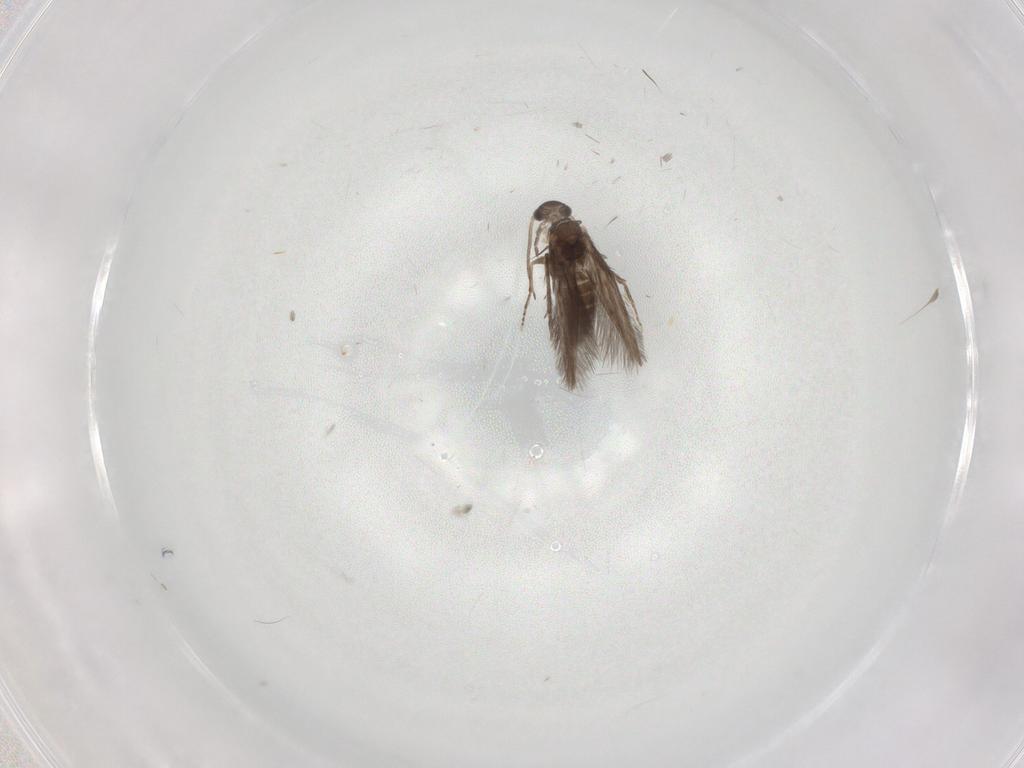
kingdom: Animalia
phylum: Arthropoda
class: Insecta
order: Trichoptera
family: Hydroptilidae
